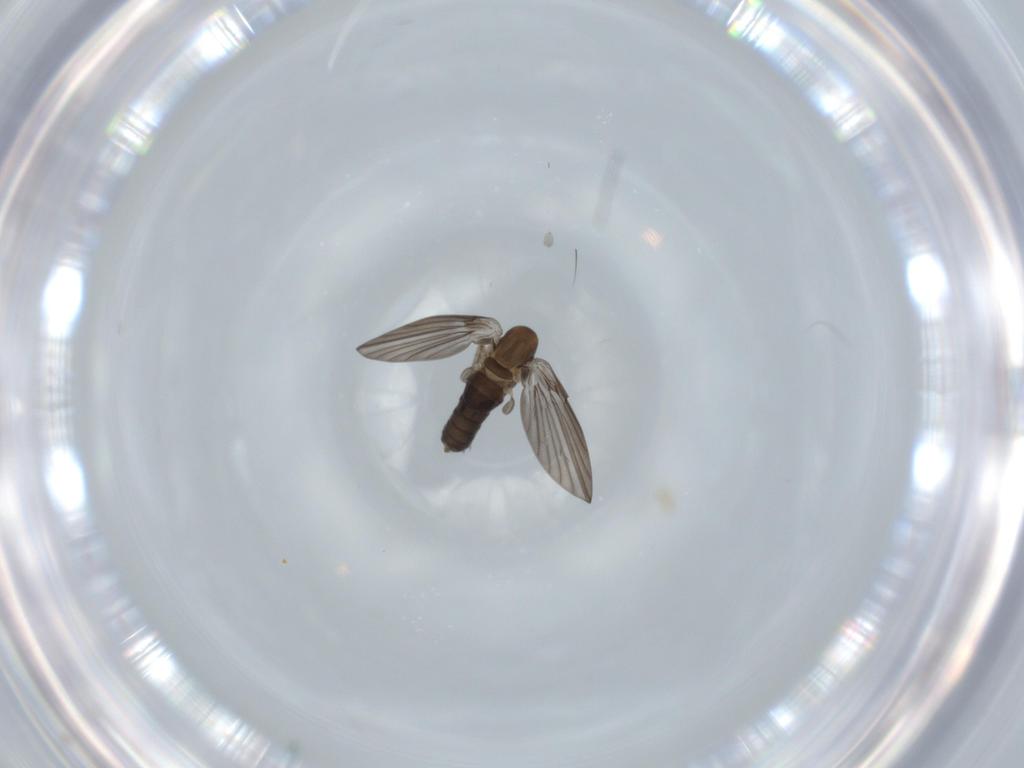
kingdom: Animalia
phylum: Arthropoda
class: Insecta
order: Diptera
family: Psychodidae
